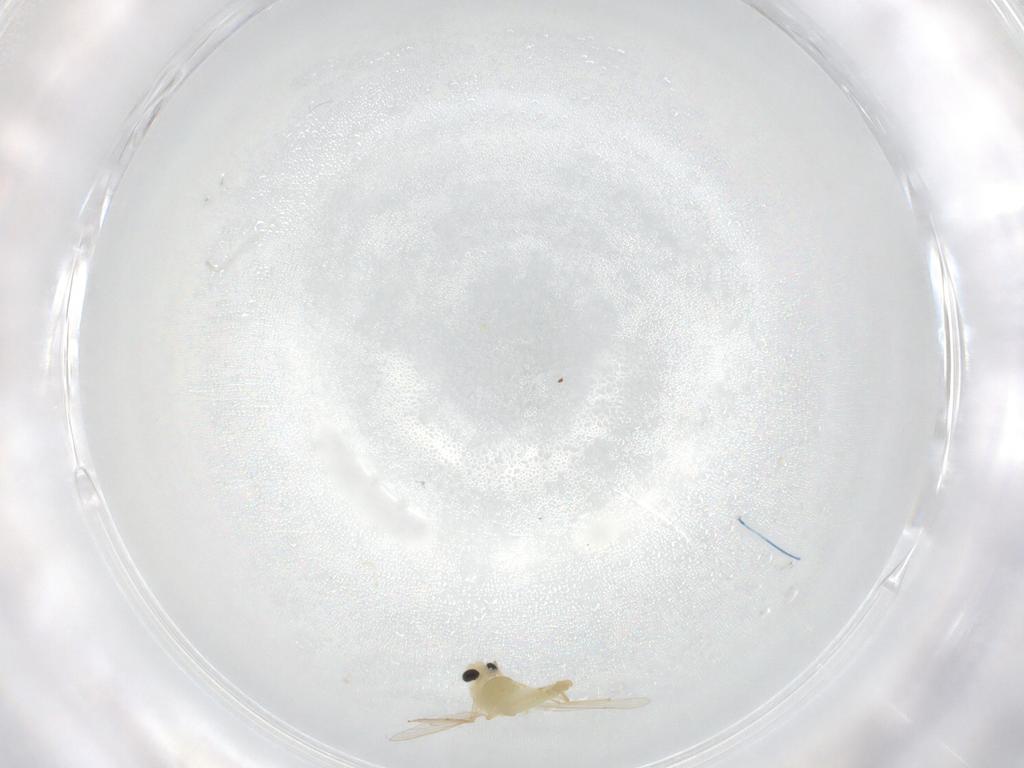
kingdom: Animalia
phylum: Arthropoda
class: Insecta
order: Diptera
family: Chironomidae
